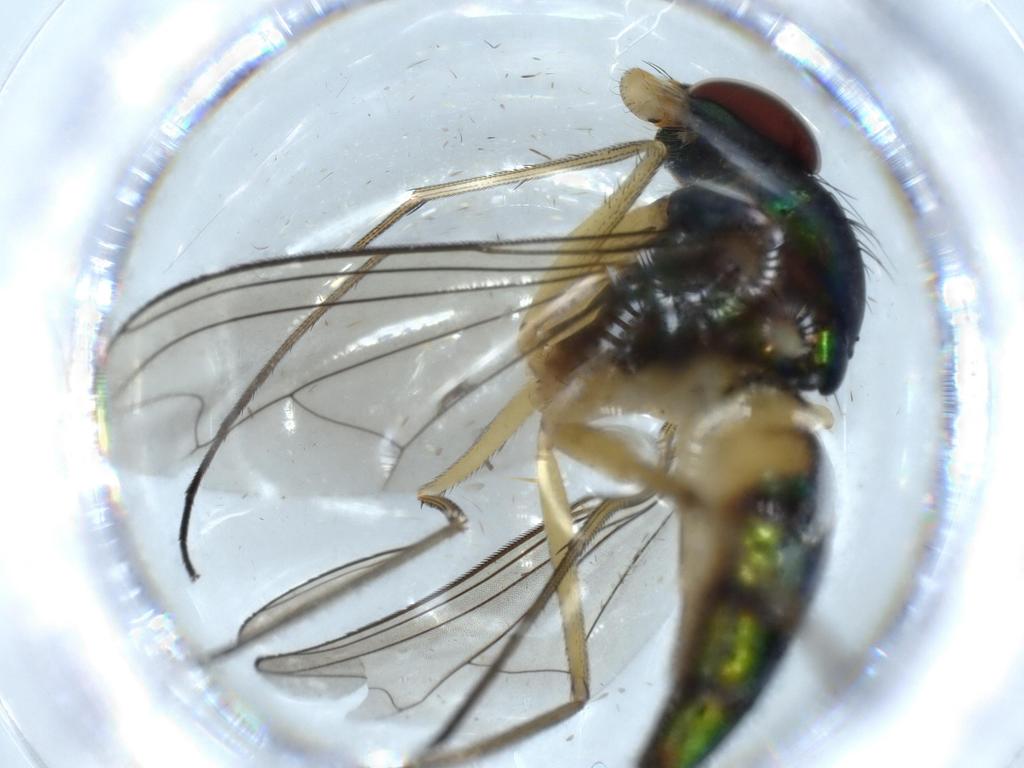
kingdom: Animalia
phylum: Arthropoda
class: Insecta
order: Diptera
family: Dolichopodidae
